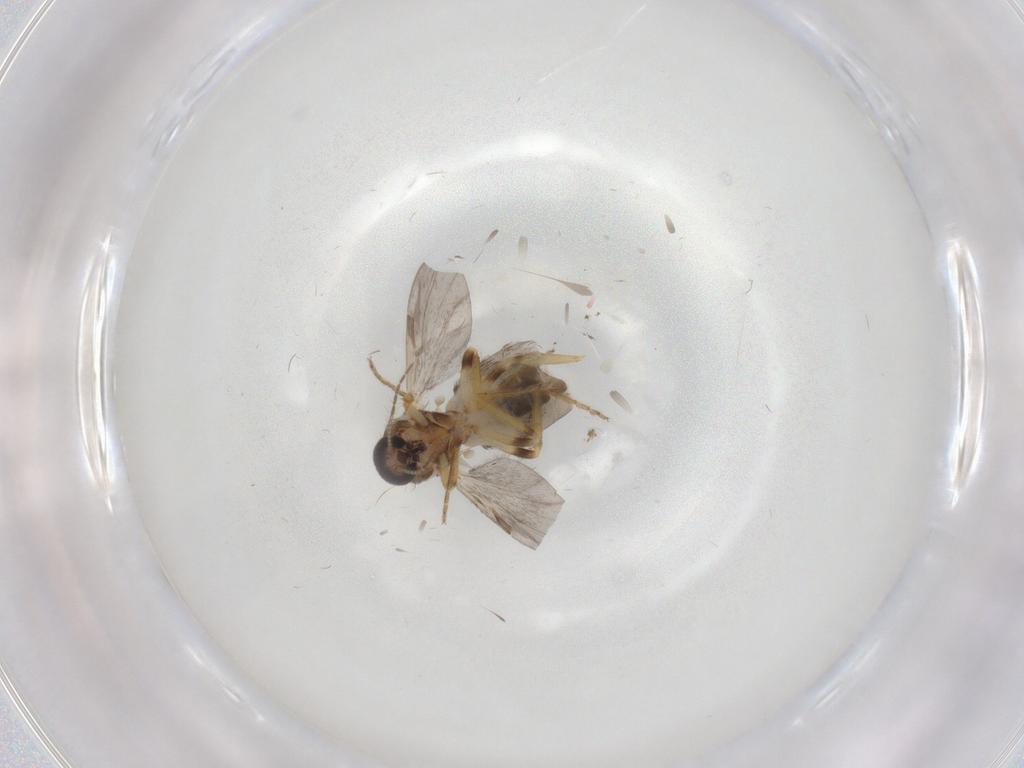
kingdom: Animalia
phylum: Arthropoda
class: Insecta
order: Diptera
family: Ceratopogonidae
